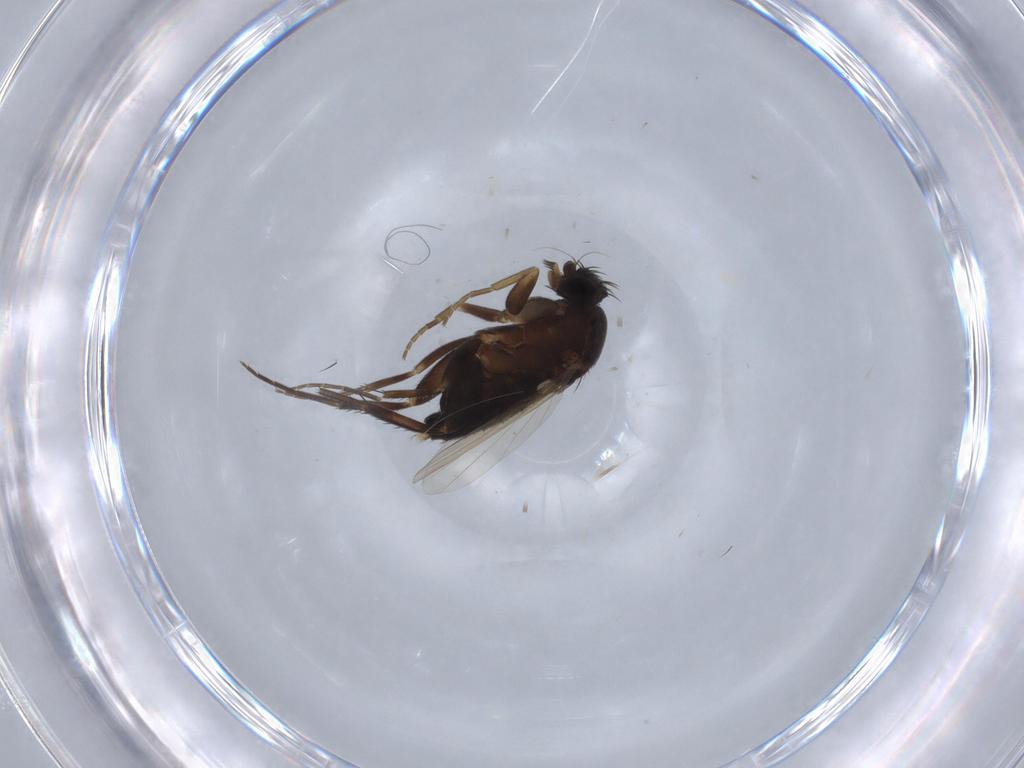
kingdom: Animalia
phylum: Arthropoda
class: Insecta
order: Diptera
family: Phoridae
